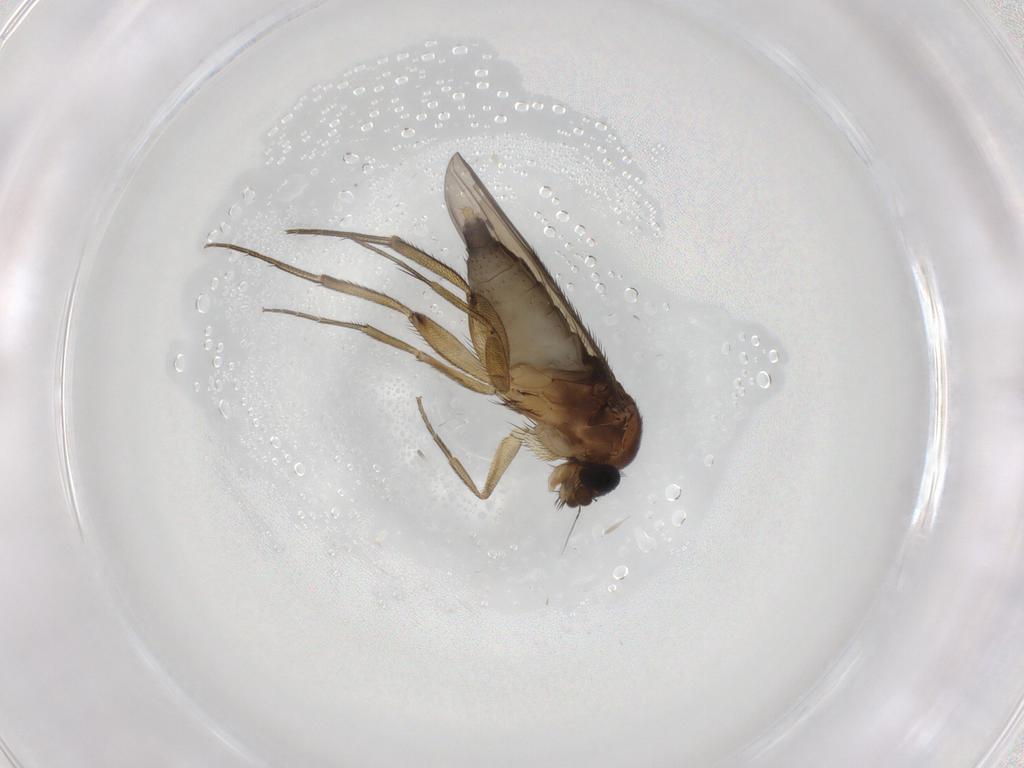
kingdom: Animalia
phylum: Arthropoda
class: Insecta
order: Diptera
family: Phoridae
